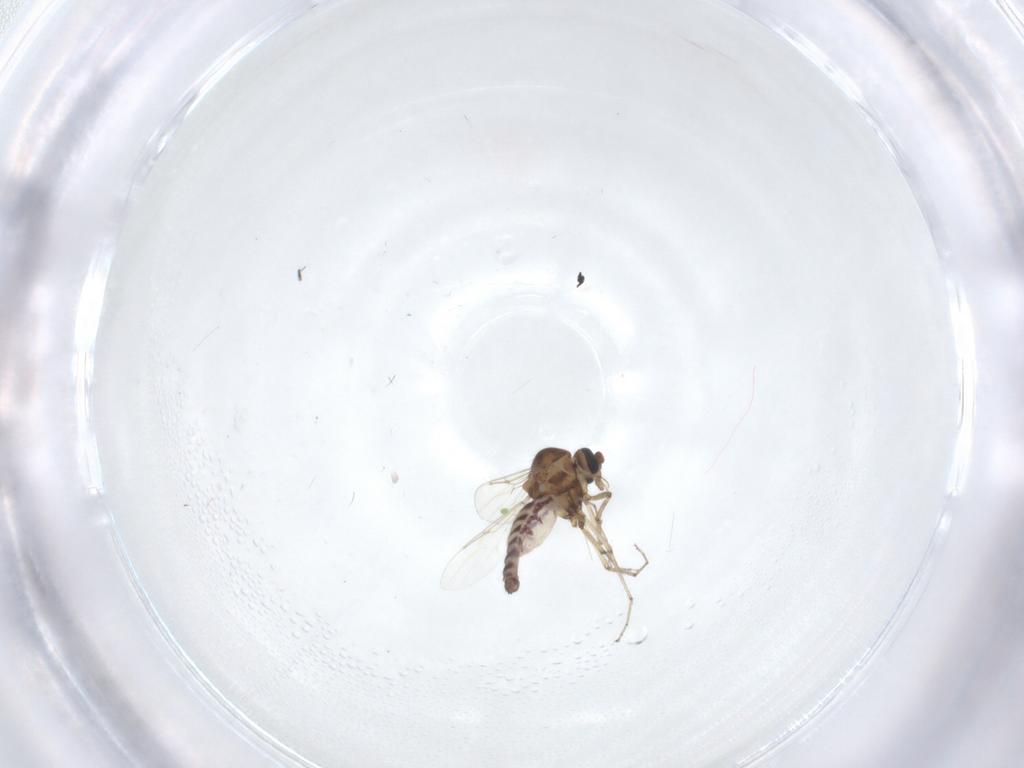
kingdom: Animalia
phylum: Arthropoda
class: Insecta
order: Diptera
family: Ceratopogonidae
